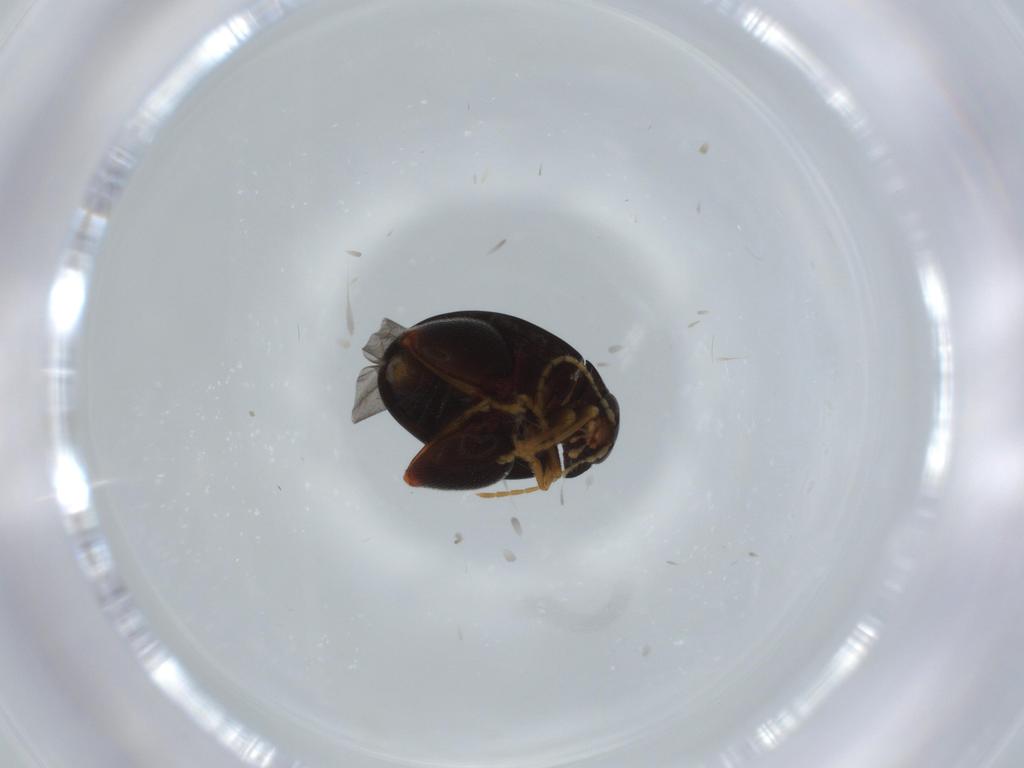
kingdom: Animalia
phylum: Arthropoda
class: Insecta
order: Coleoptera
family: Chrysomelidae
